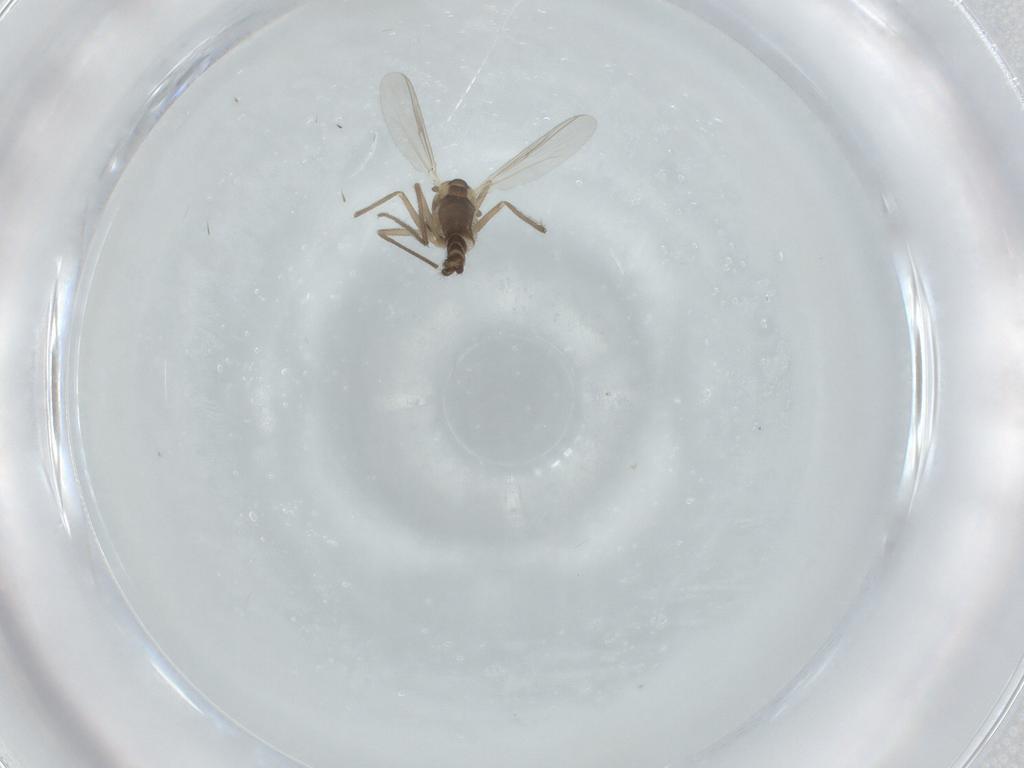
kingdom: Animalia
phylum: Arthropoda
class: Insecta
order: Diptera
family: Chironomidae
